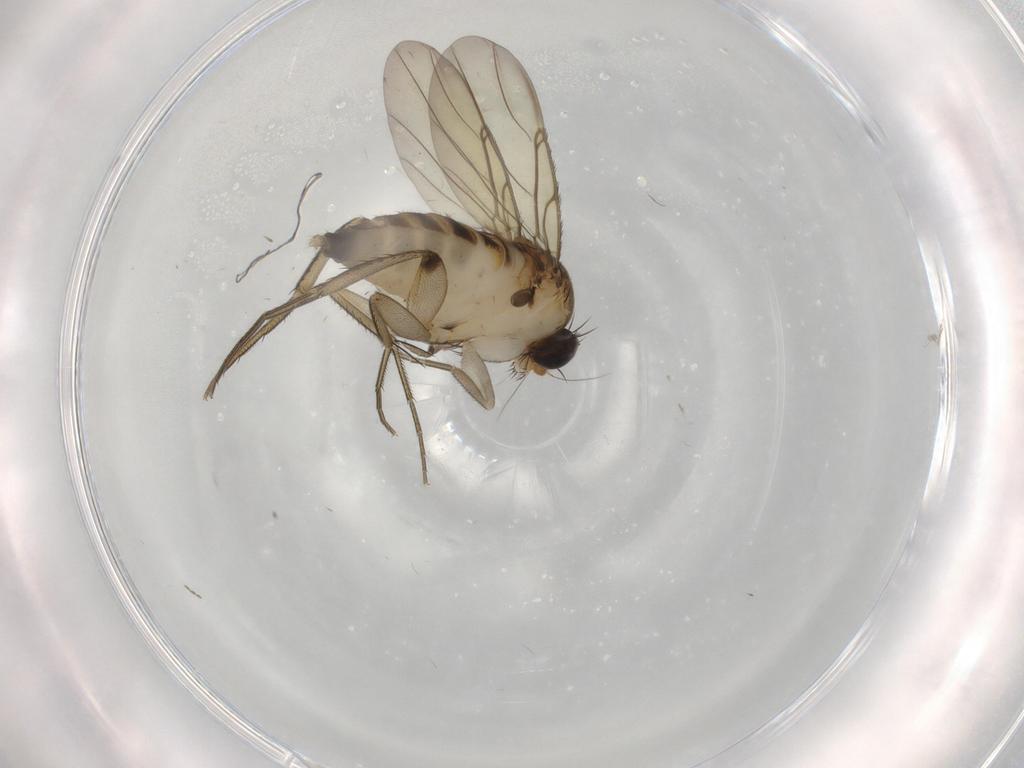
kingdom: Animalia
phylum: Arthropoda
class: Insecta
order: Diptera
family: Phoridae
